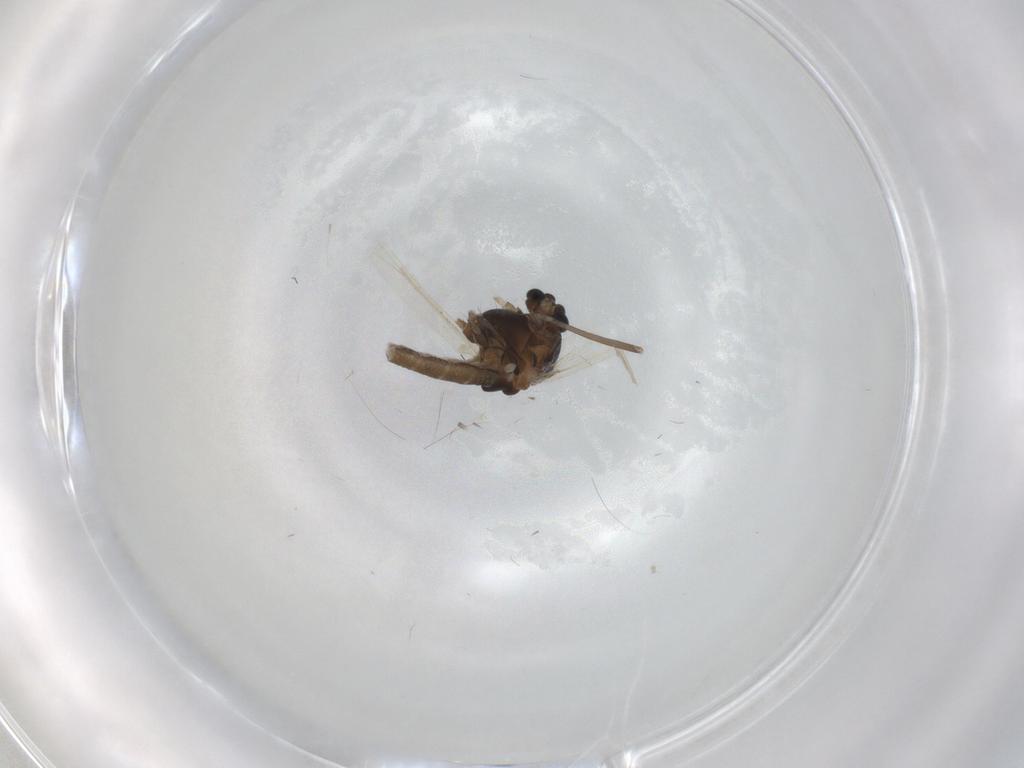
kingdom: Animalia
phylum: Arthropoda
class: Insecta
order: Diptera
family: Chironomidae
